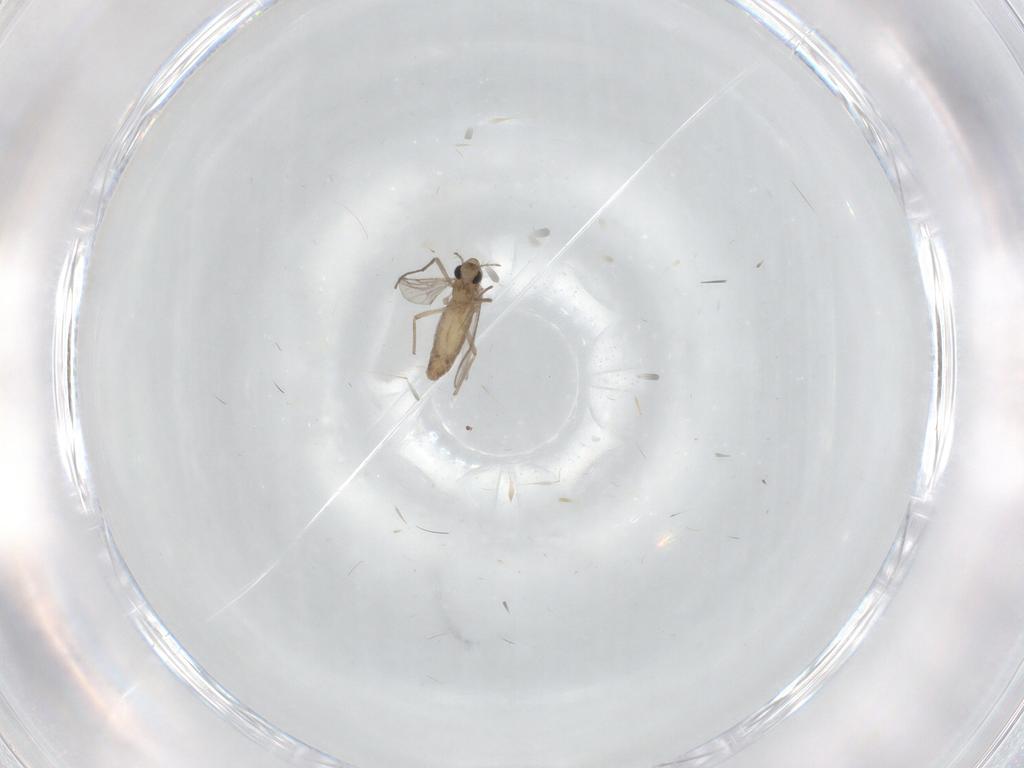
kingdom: Animalia
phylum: Arthropoda
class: Insecta
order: Diptera
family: Chironomidae
